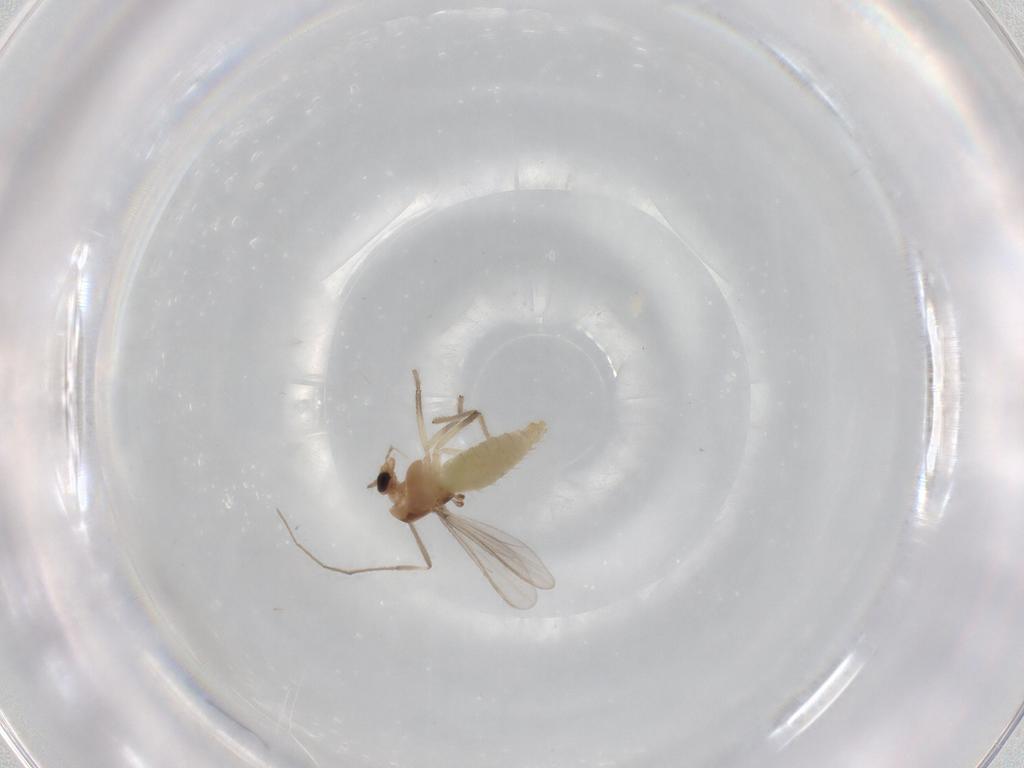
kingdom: Animalia
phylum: Arthropoda
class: Insecta
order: Diptera
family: Chironomidae
